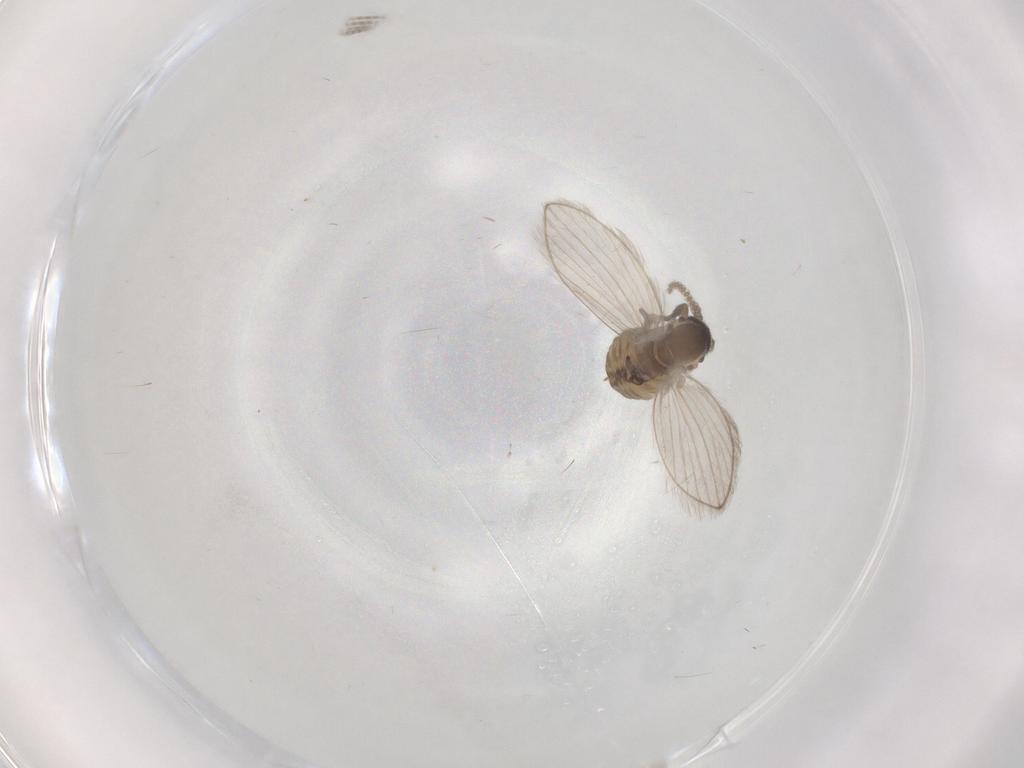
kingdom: Animalia
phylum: Arthropoda
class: Insecta
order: Diptera
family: Psychodidae
